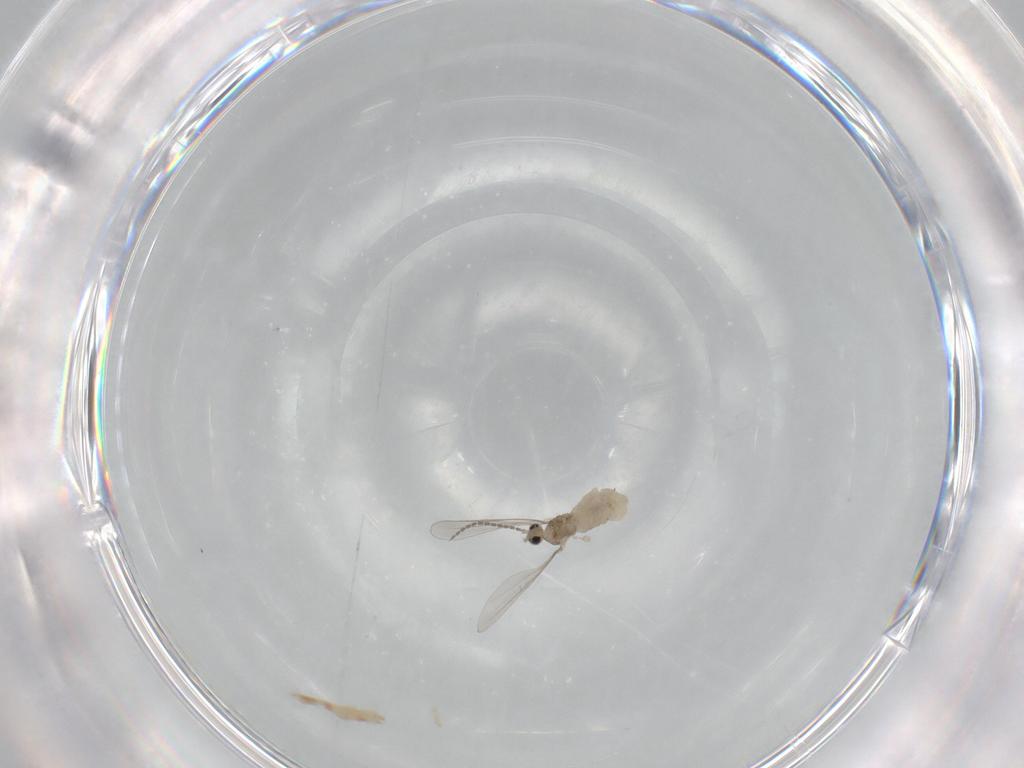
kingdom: Animalia
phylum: Arthropoda
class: Insecta
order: Diptera
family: Cecidomyiidae
